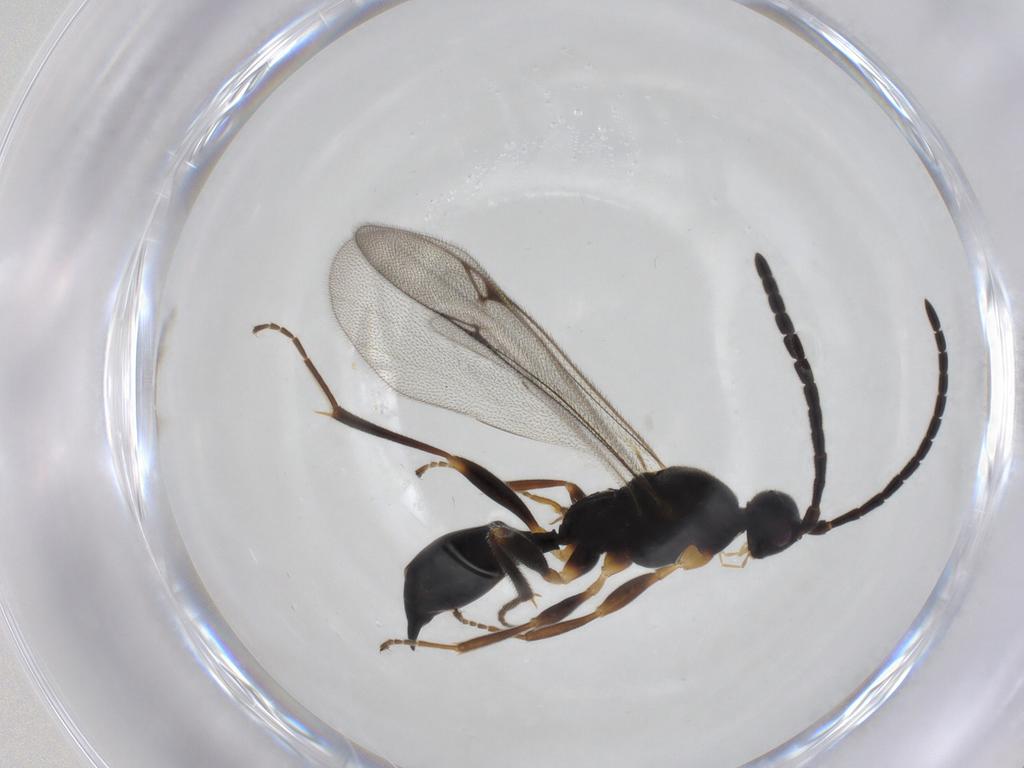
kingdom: Animalia
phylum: Arthropoda
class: Insecta
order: Hymenoptera
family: Proctotrupidae
